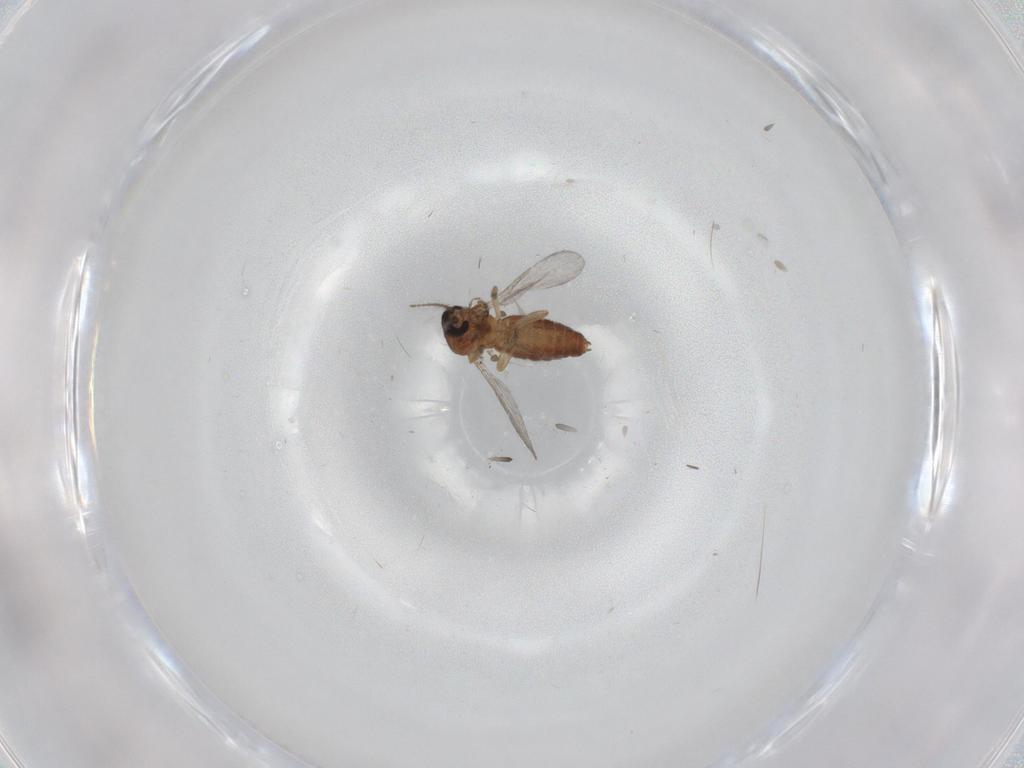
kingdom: Animalia
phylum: Arthropoda
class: Insecta
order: Diptera
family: Ceratopogonidae
